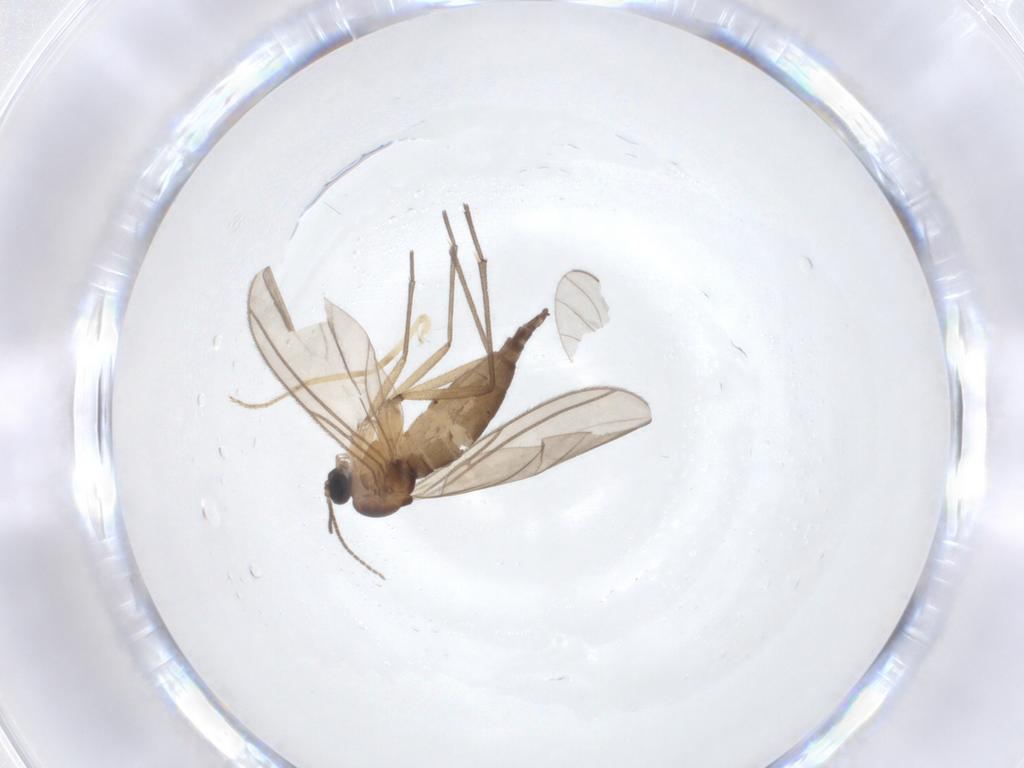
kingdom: Animalia
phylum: Arthropoda
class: Insecta
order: Diptera
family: Sciaridae
